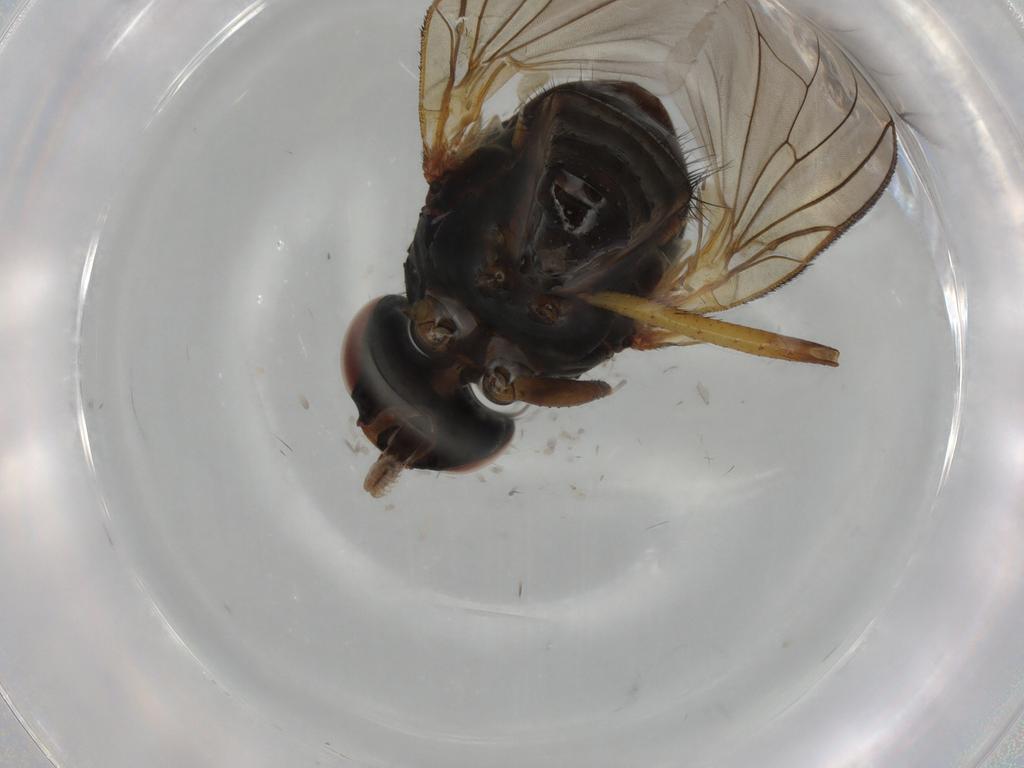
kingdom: Animalia
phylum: Arthropoda
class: Insecta
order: Diptera
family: Anthomyiidae
